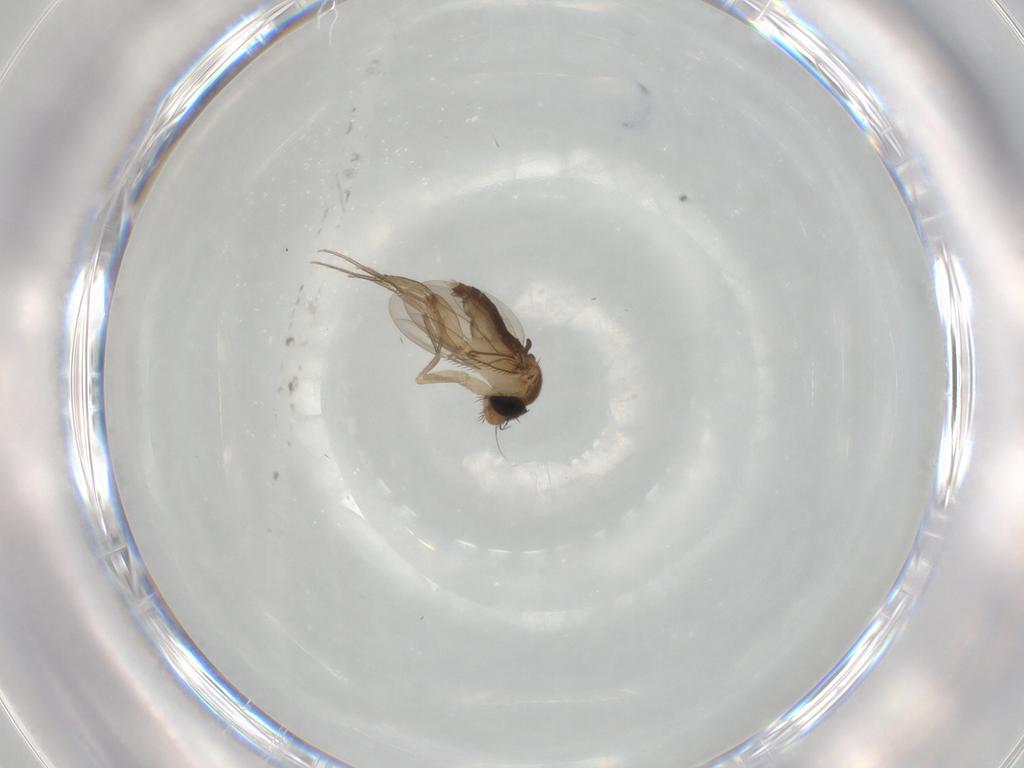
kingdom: Animalia
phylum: Arthropoda
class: Insecta
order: Diptera
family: Phoridae
